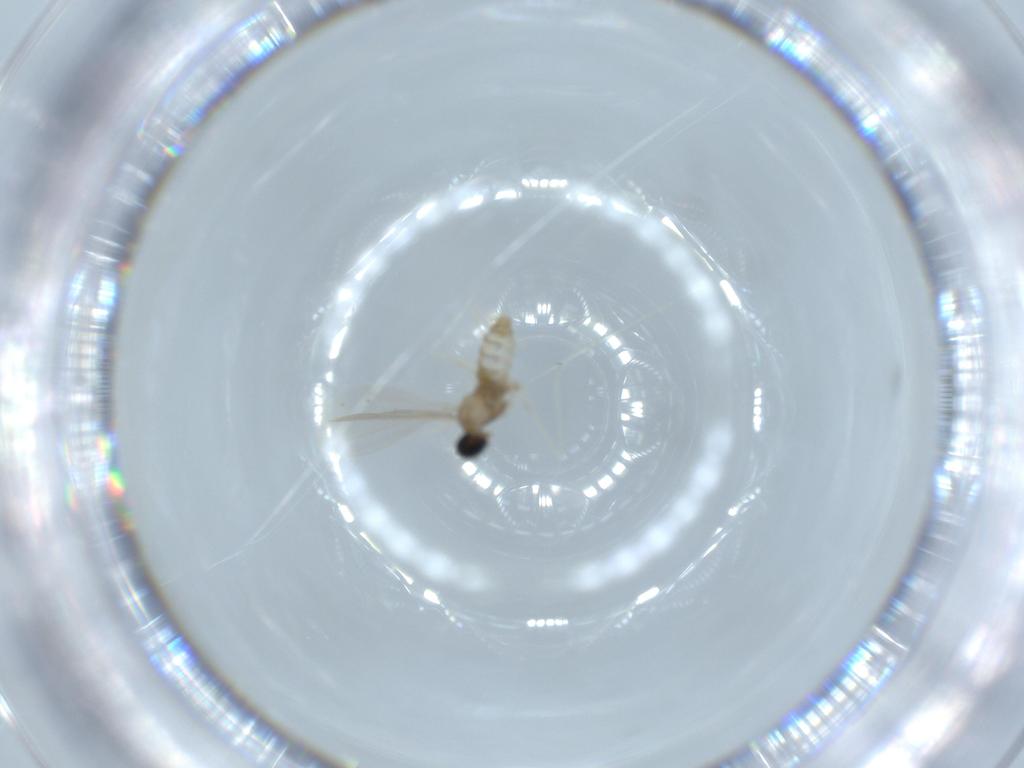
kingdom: Animalia
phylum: Arthropoda
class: Insecta
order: Diptera
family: Cecidomyiidae
